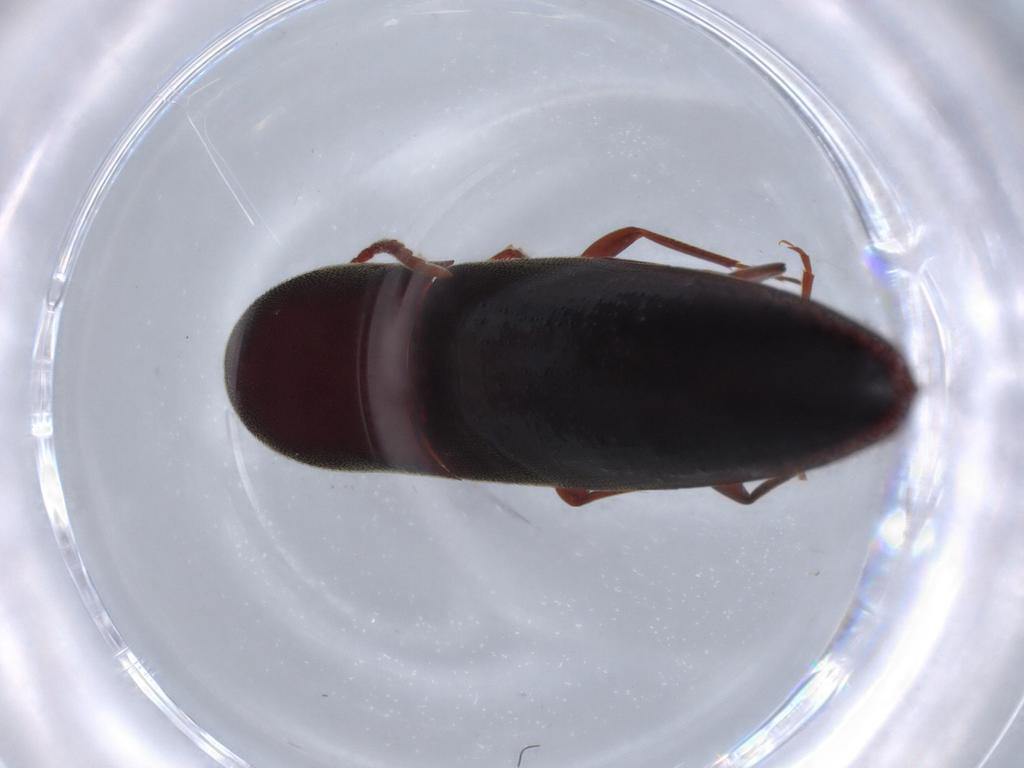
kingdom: Animalia
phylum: Arthropoda
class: Insecta
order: Coleoptera
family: Eucnemidae
